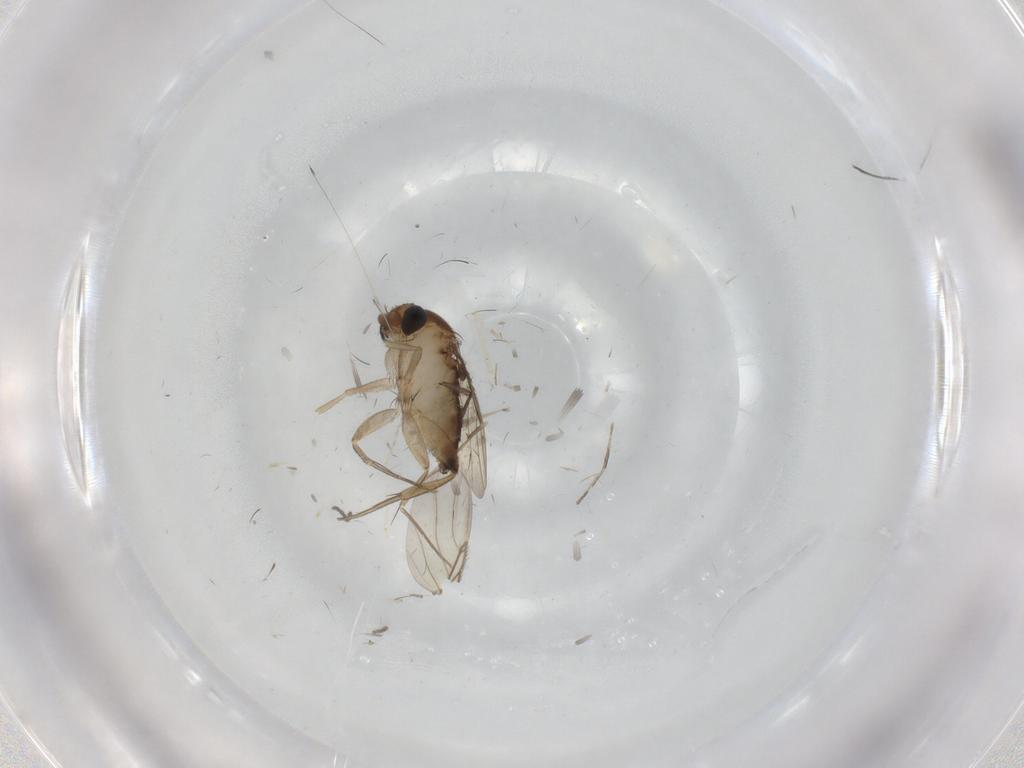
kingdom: Animalia
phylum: Arthropoda
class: Insecta
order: Diptera
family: Phoridae
